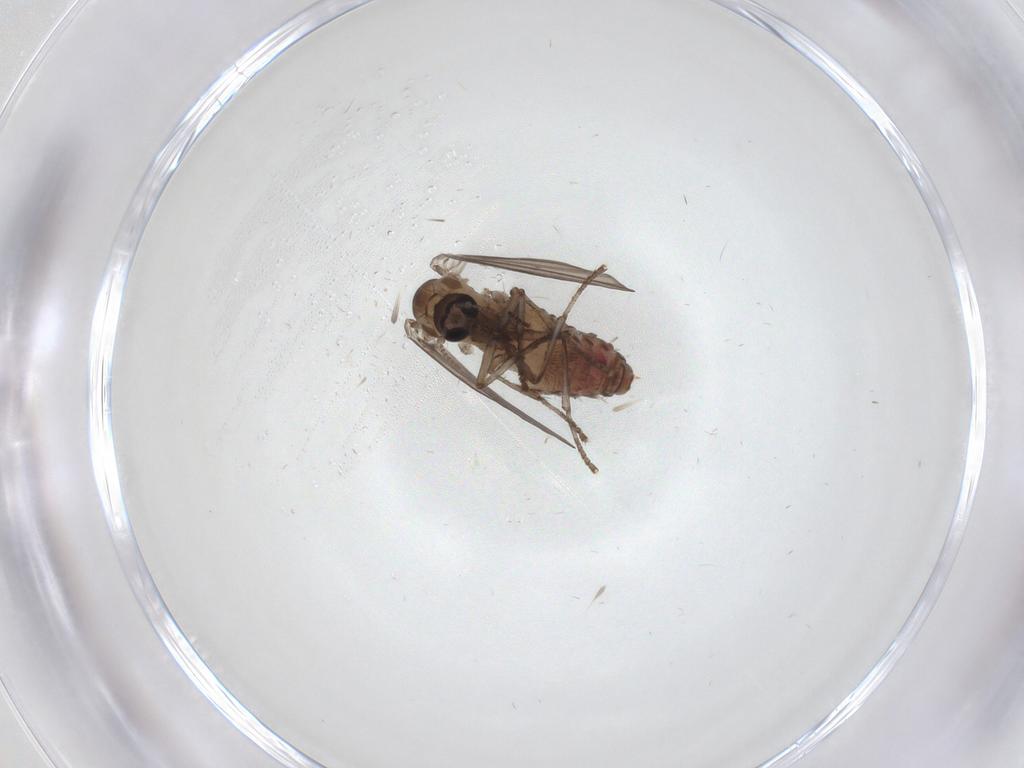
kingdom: Animalia
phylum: Arthropoda
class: Insecta
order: Diptera
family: Psychodidae
